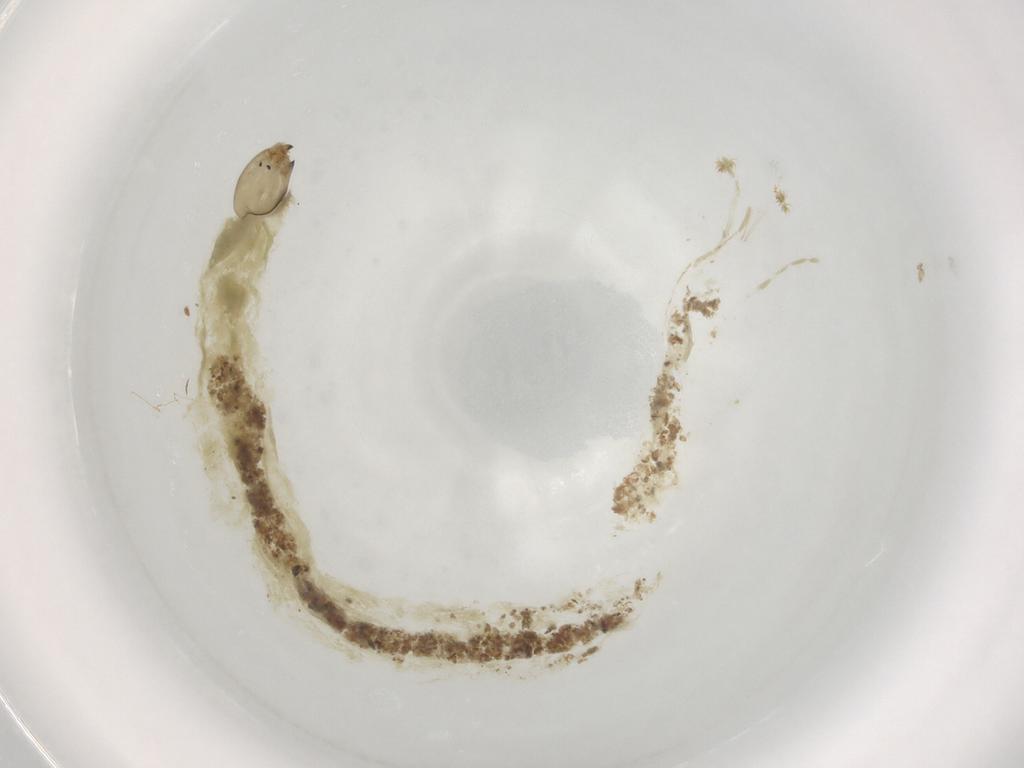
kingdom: Animalia
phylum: Arthropoda
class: Insecta
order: Diptera
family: Chironomidae
